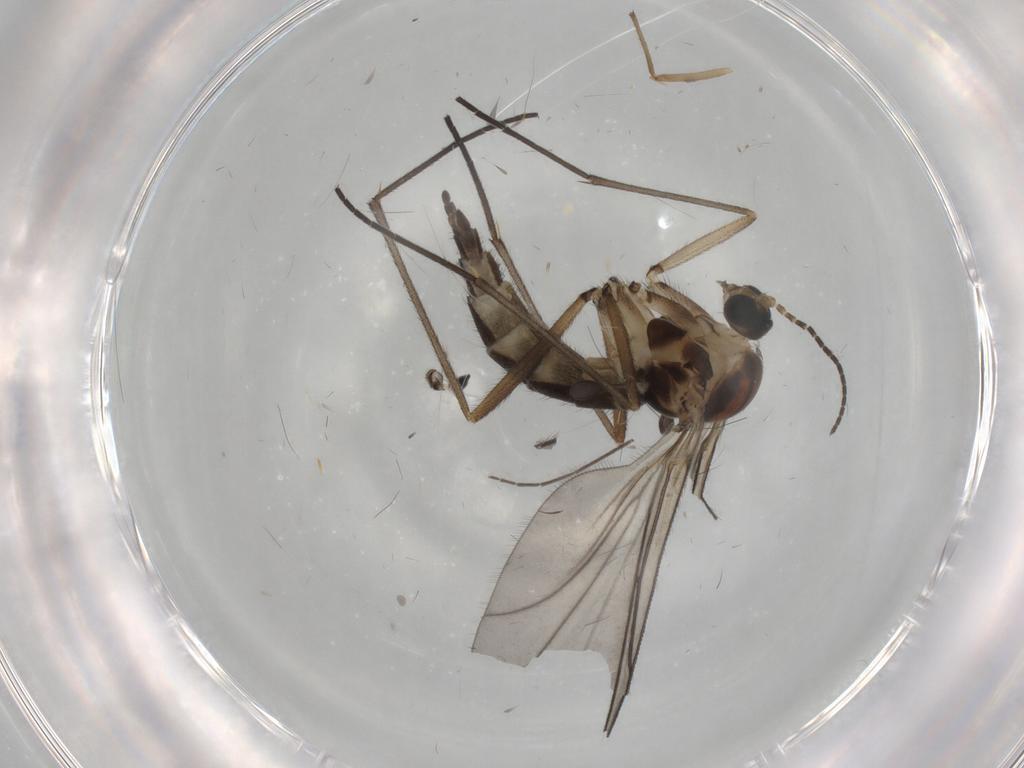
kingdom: Animalia
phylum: Arthropoda
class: Insecta
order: Diptera
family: Sciaridae
